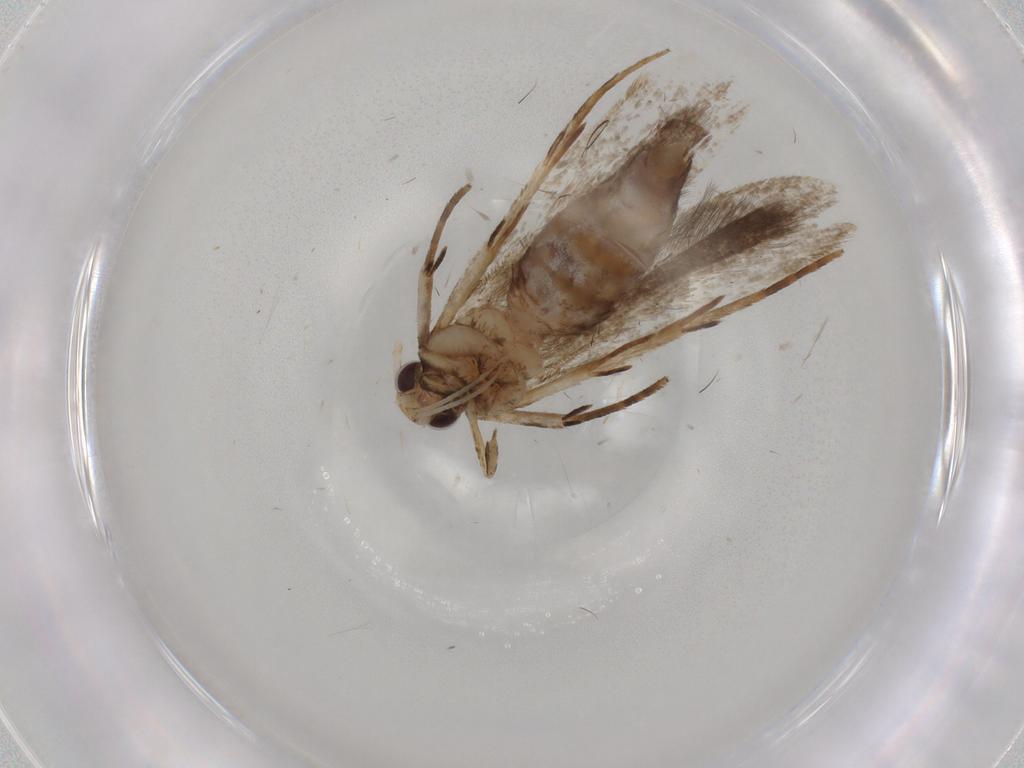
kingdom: Animalia
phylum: Arthropoda
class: Insecta
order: Lepidoptera
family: Gelechiidae
